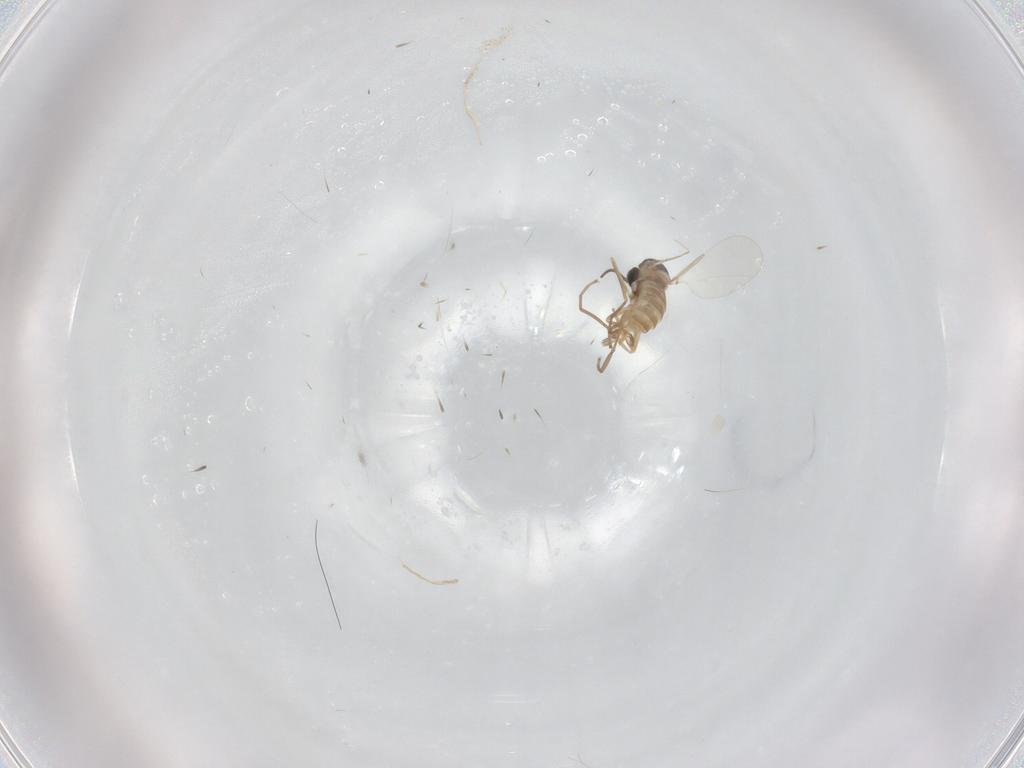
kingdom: Animalia
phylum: Arthropoda
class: Insecta
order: Diptera
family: Cecidomyiidae
